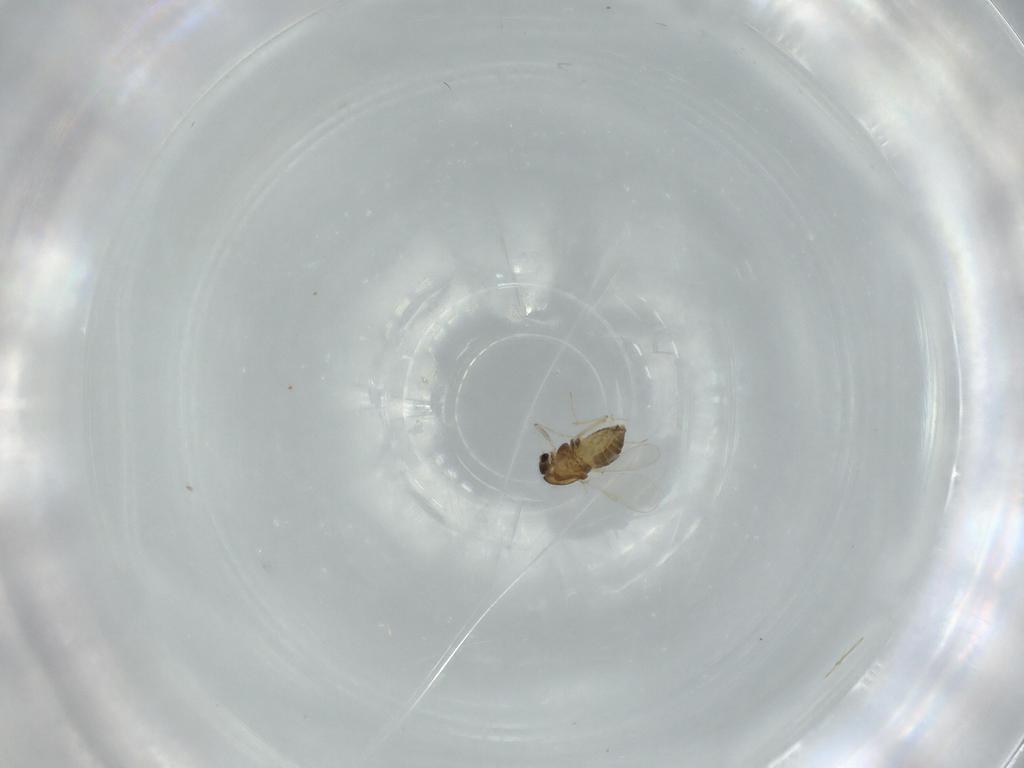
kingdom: Animalia
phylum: Arthropoda
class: Insecta
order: Diptera
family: Chironomidae
